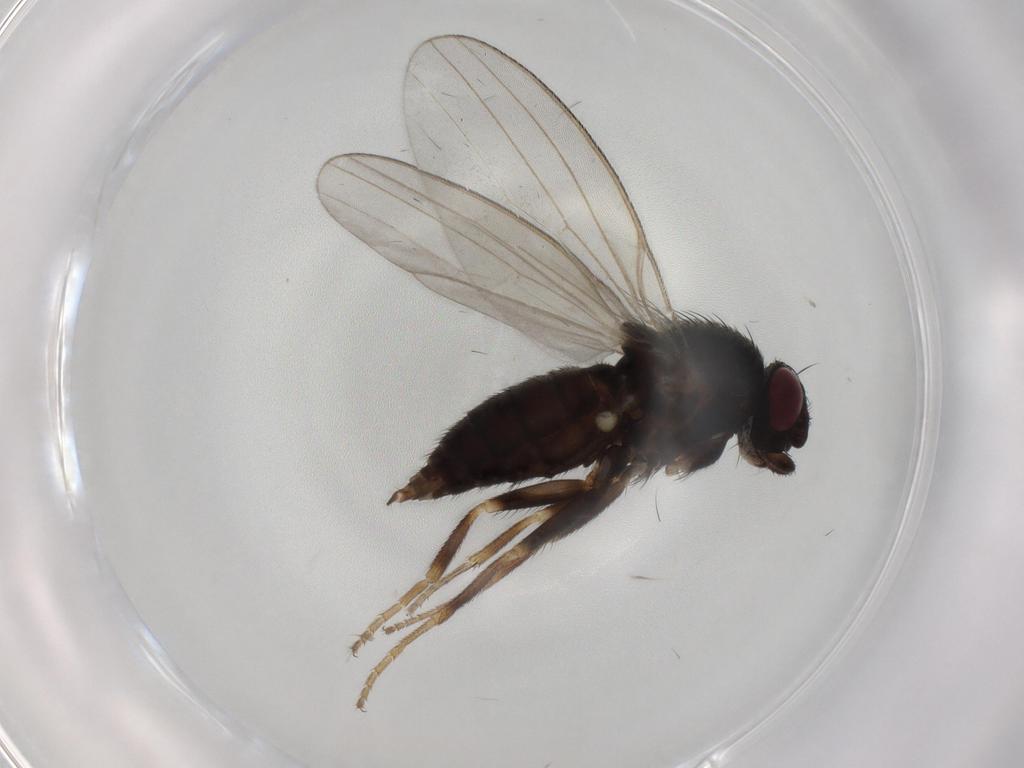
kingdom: Animalia
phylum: Arthropoda
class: Insecta
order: Diptera
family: Milichiidae
